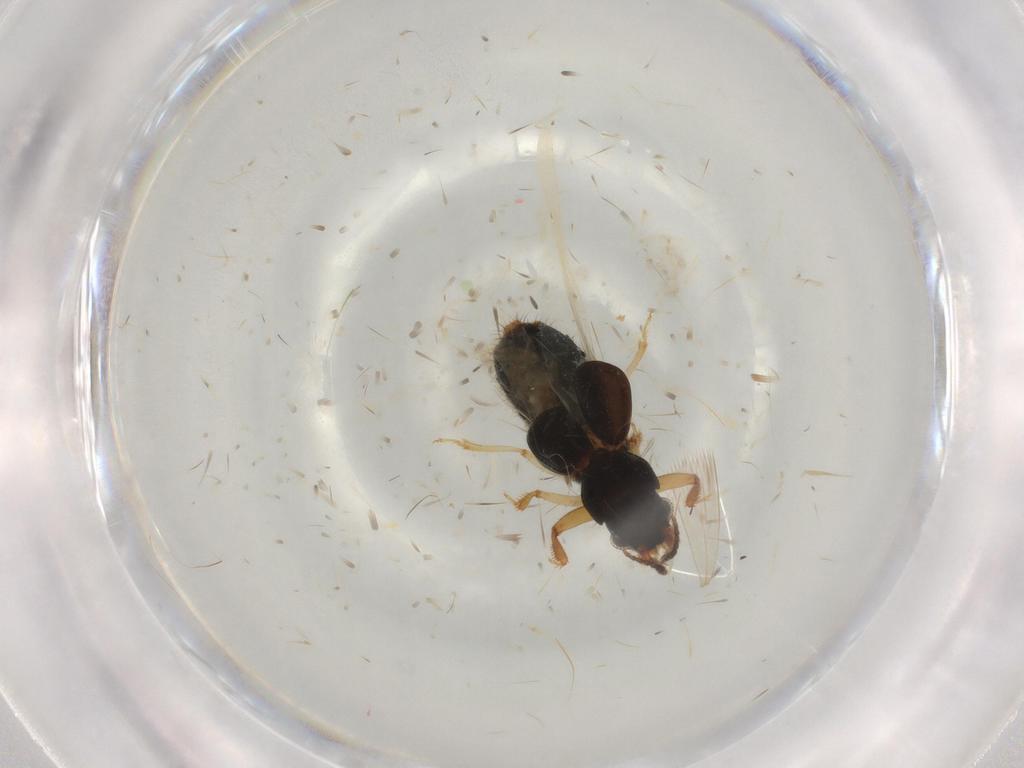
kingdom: Animalia
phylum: Arthropoda
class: Insecta
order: Coleoptera
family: Staphylinidae
